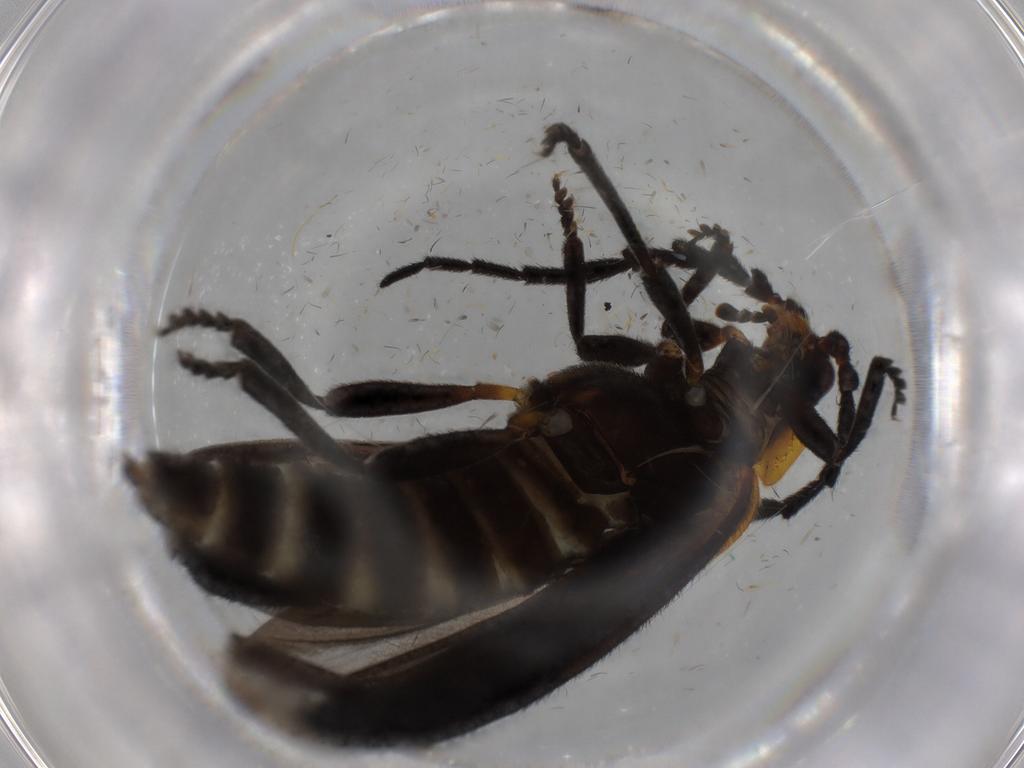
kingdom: Animalia
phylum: Arthropoda
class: Insecta
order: Coleoptera
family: Lycidae
